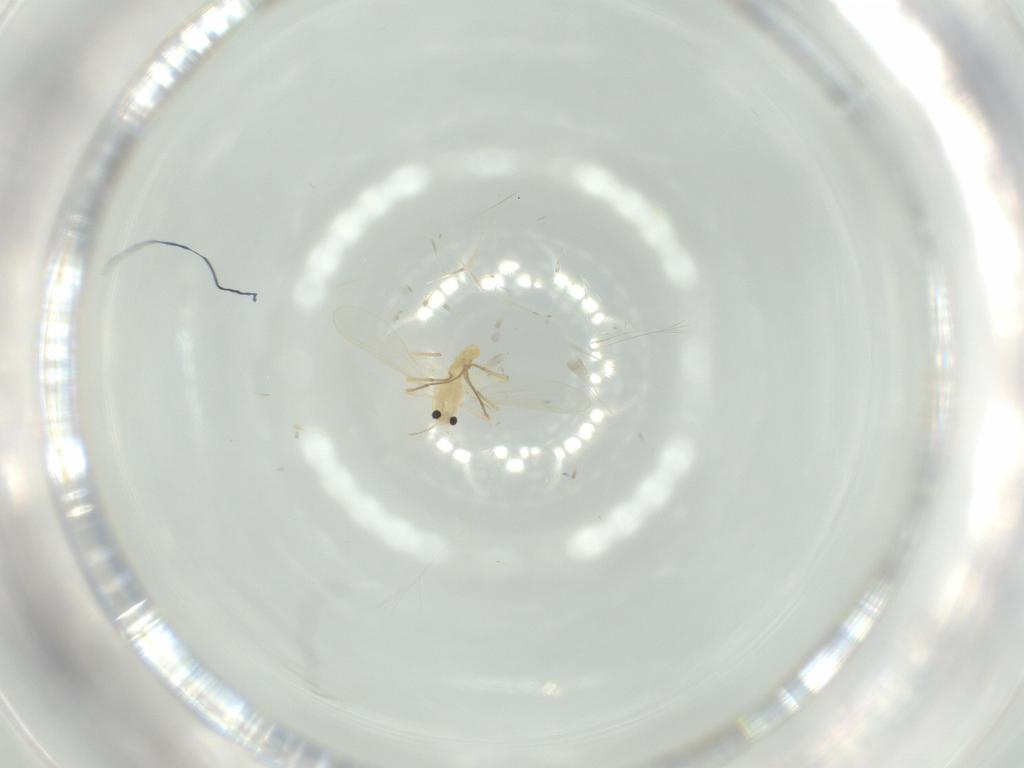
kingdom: Animalia
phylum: Arthropoda
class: Insecta
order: Diptera
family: Chironomidae
